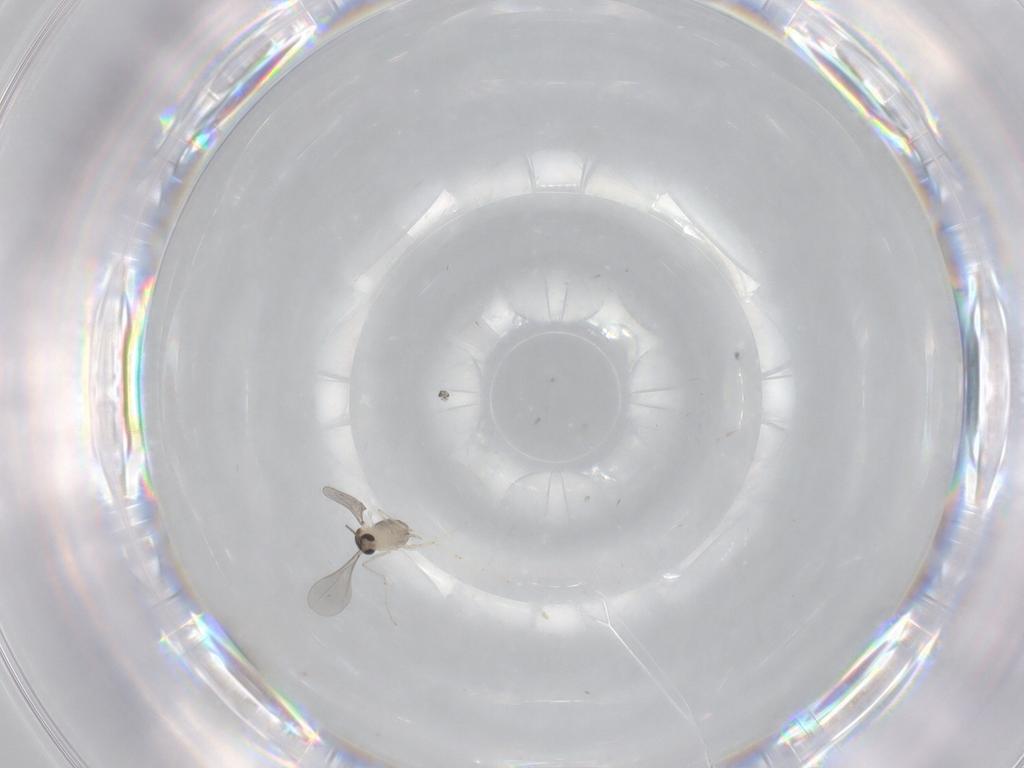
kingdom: Animalia
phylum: Arthropoda
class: Insecta
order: Diptera
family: Cecidomyiidae
